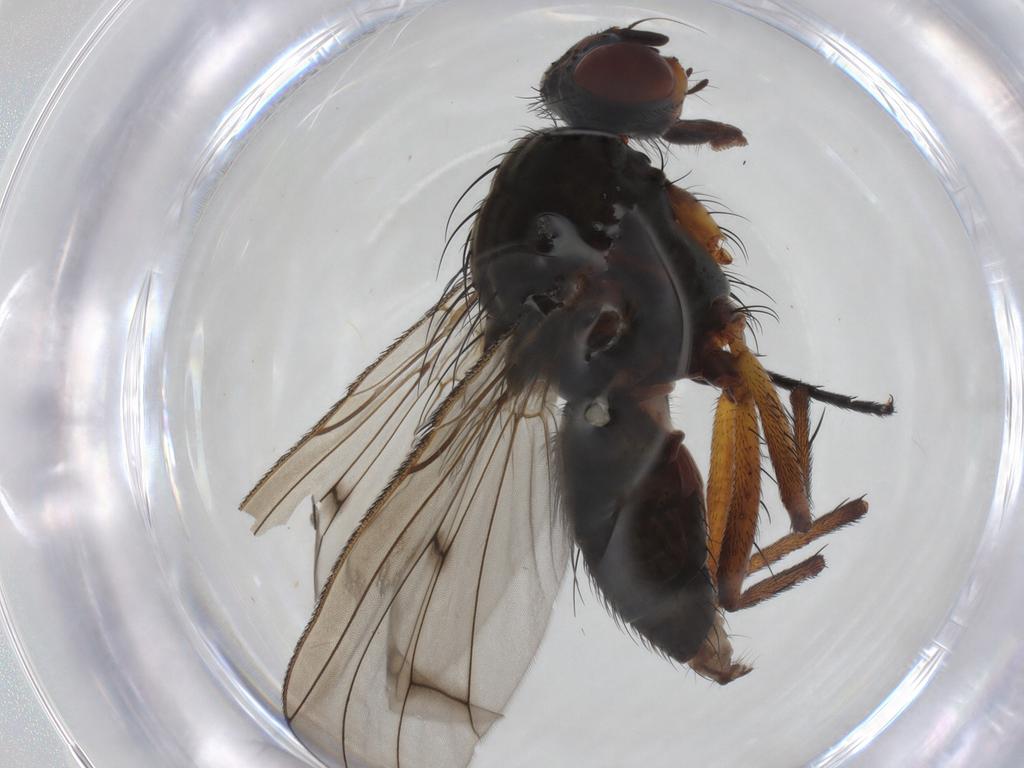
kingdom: Animalia
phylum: Arthropoda
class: Insecta
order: Diptera
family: Anthomyiidae
